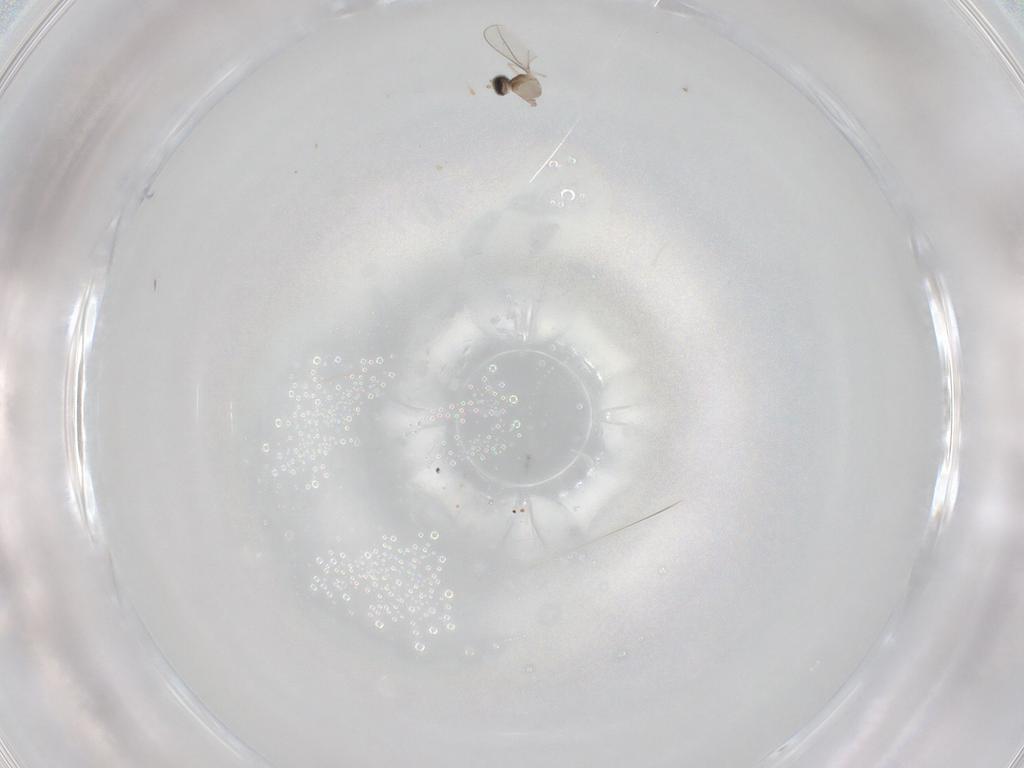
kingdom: Animalia
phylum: Arthropoda
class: Insecta
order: Diptera
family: Cecidomyiidae
